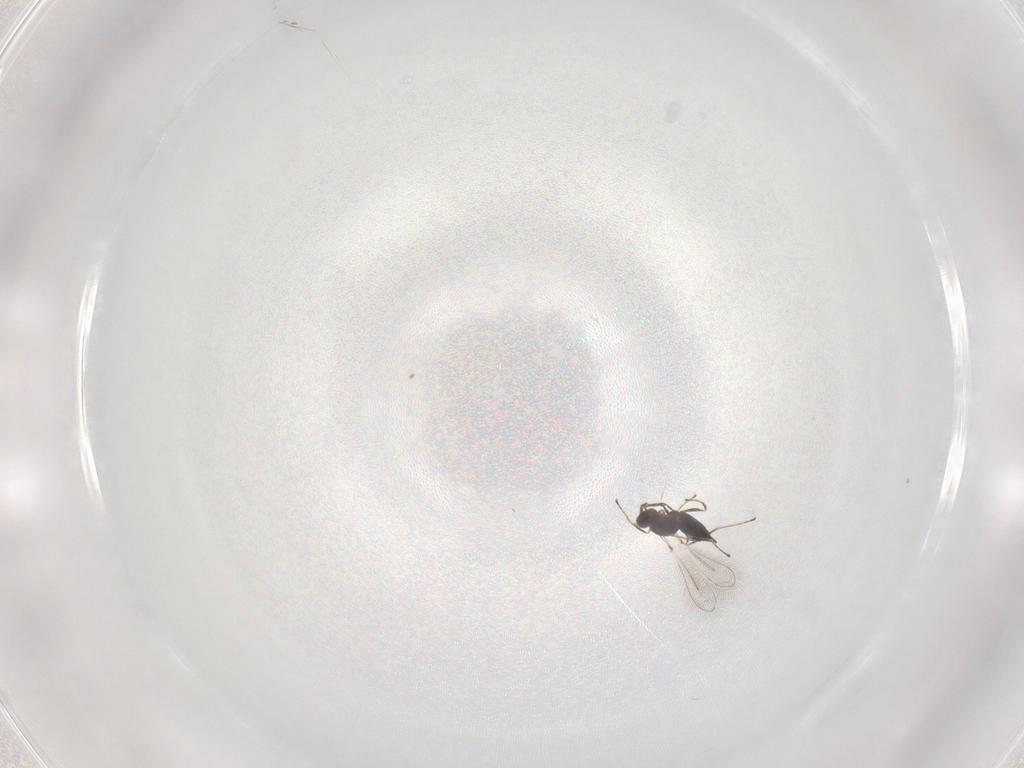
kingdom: Animalia
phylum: Arthropoda
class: Insecta
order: Hymenoptera
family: Mymaridae
